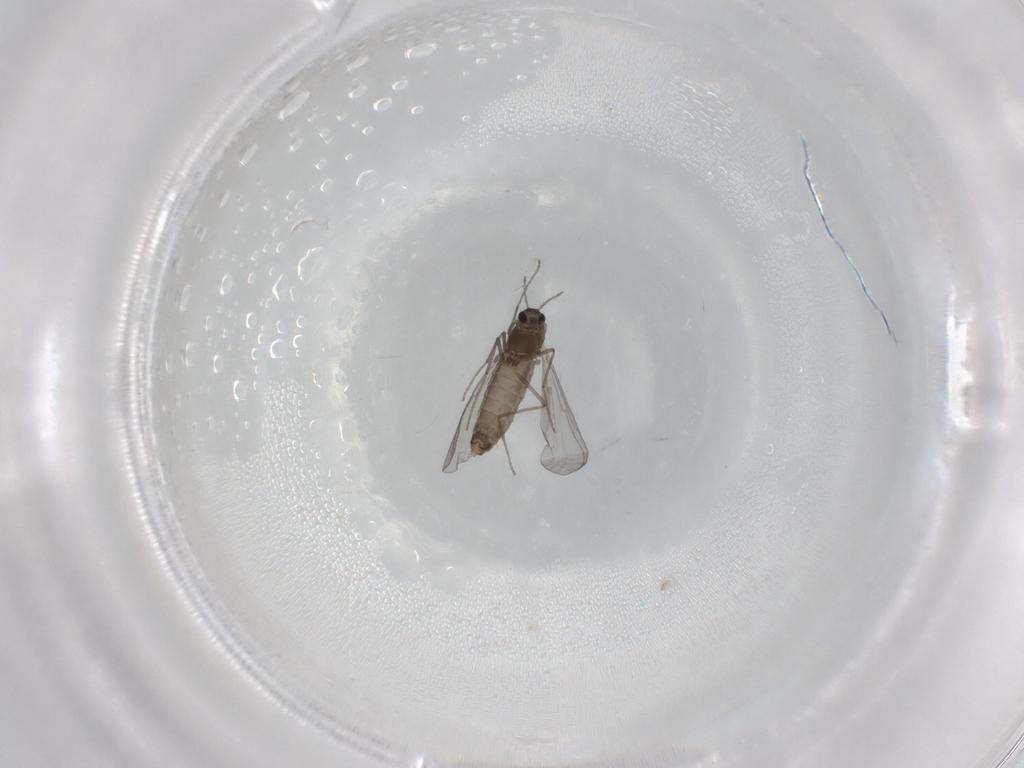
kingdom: Animalia
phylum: Arthropoda
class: Insecta
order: Diptera
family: Chironomidae
